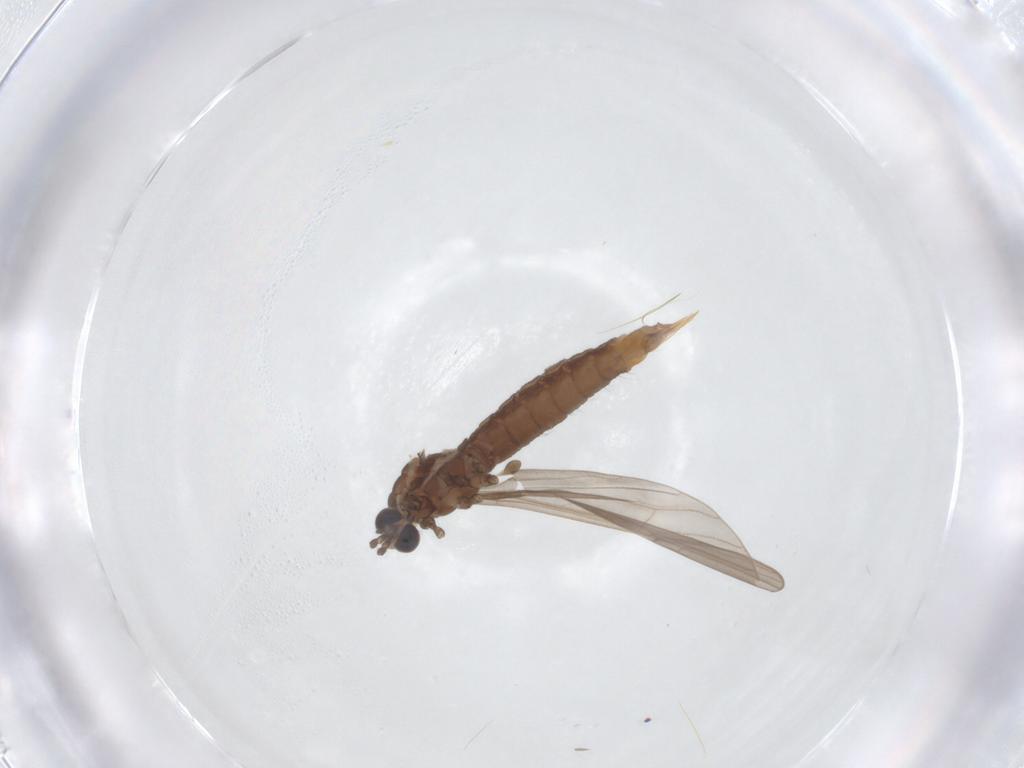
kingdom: Animalia
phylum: Arthropoda
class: Insecta
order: Diptera
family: Limoniidae
